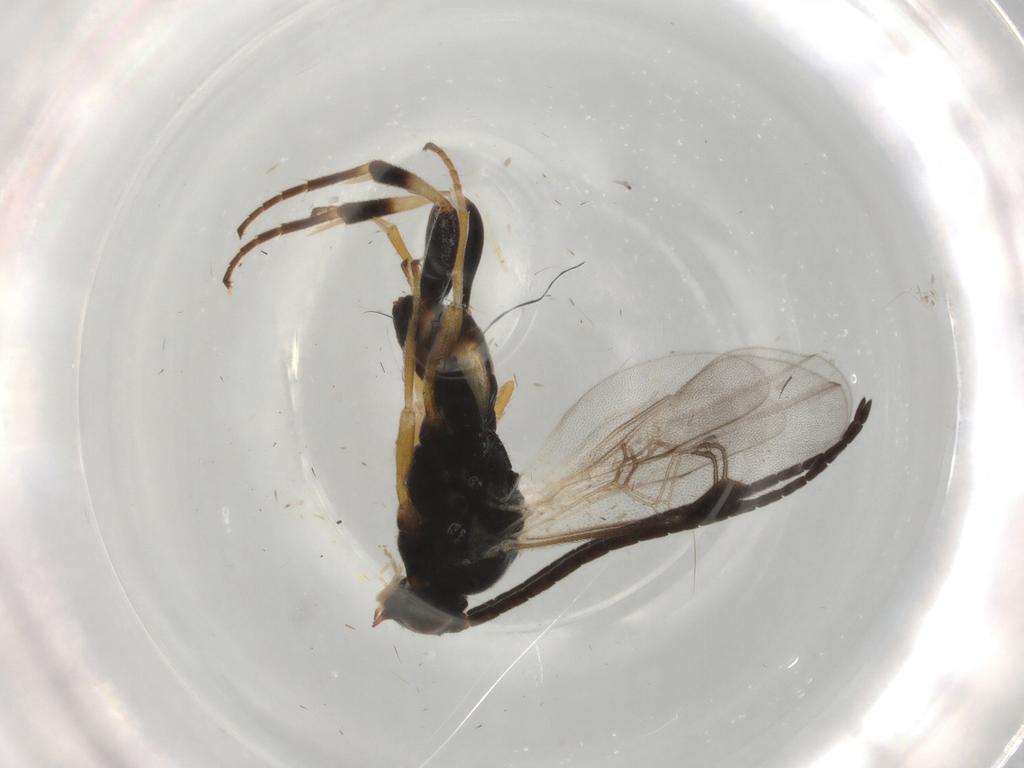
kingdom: Animalia
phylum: Arthropoda
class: Insecta
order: Hymenoptera
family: Braconidae
